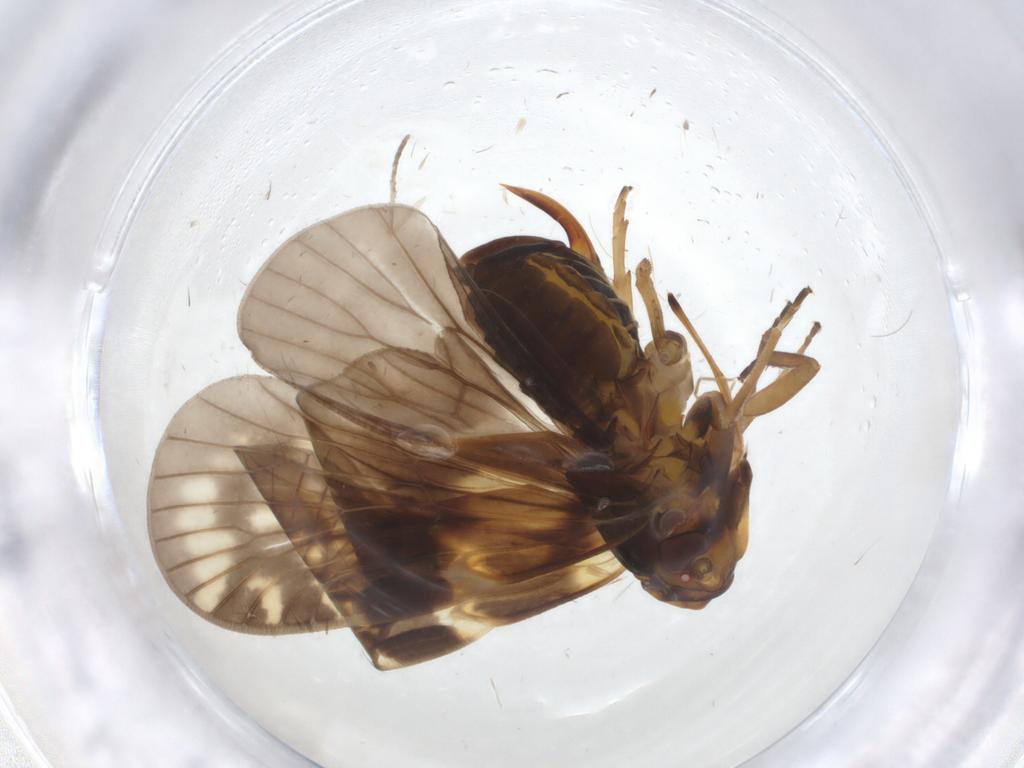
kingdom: Animalia
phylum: Arthropoda
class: Insecta
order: Hemiptera
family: Cixiidae
